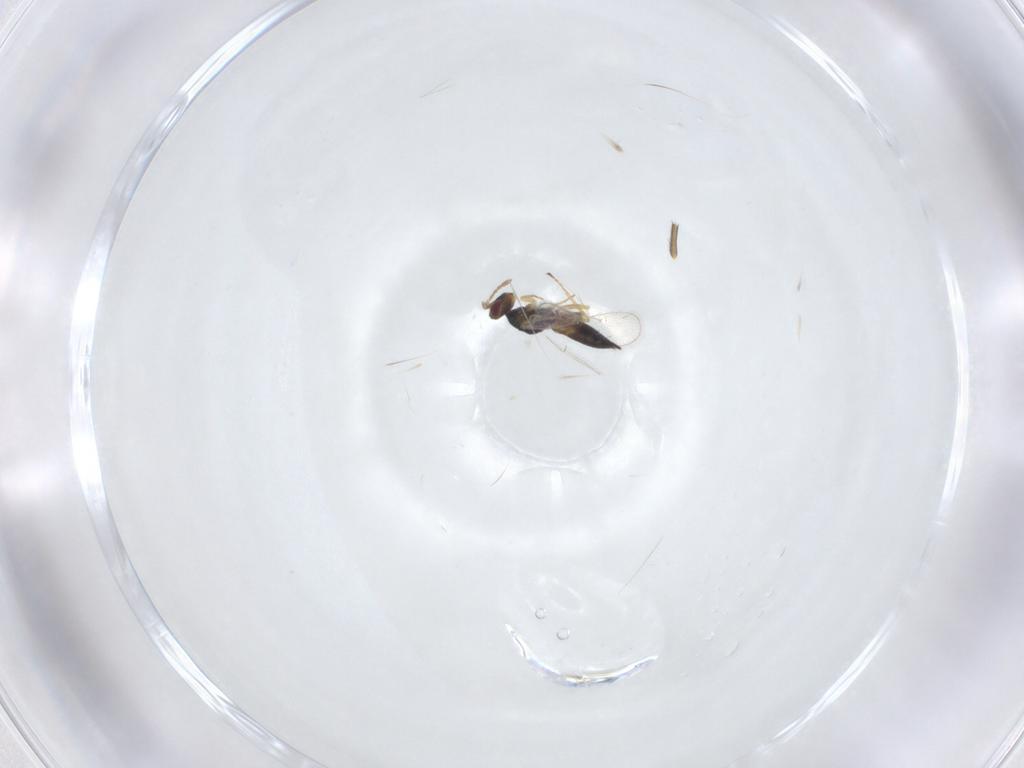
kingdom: Animalia
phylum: Arthropoda
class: Insecta
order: Hymenoptera
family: Eulophidae
